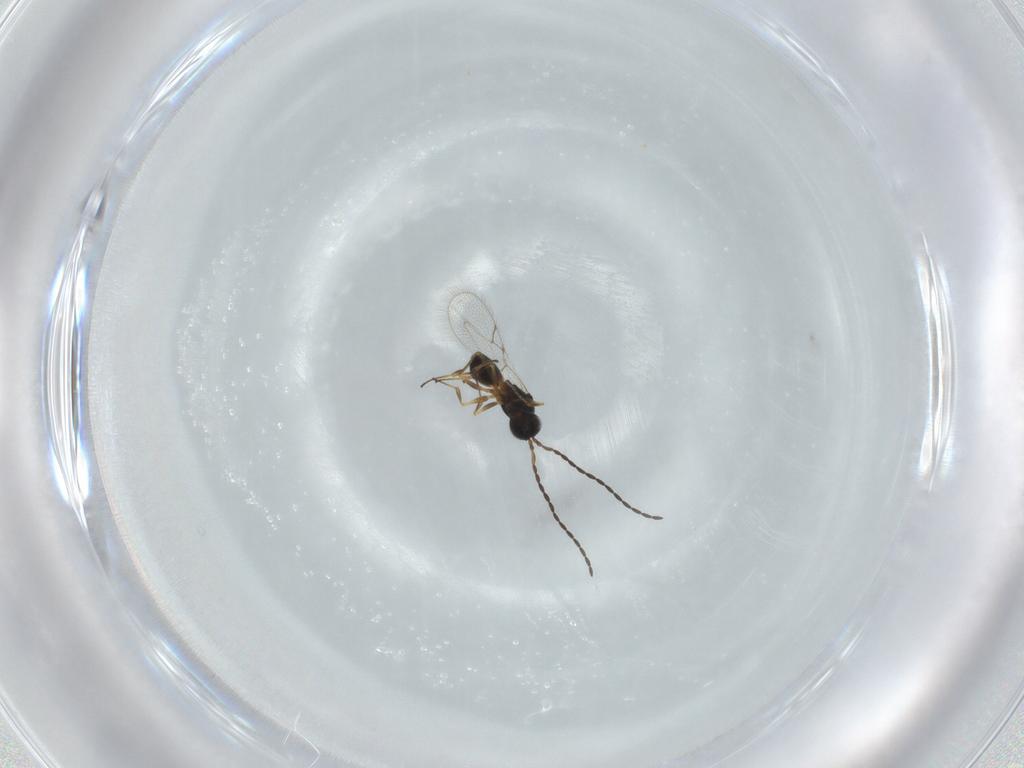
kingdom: Animalia
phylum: Arthropoda
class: Insecta
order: Hymenoptera
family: Figitidae
